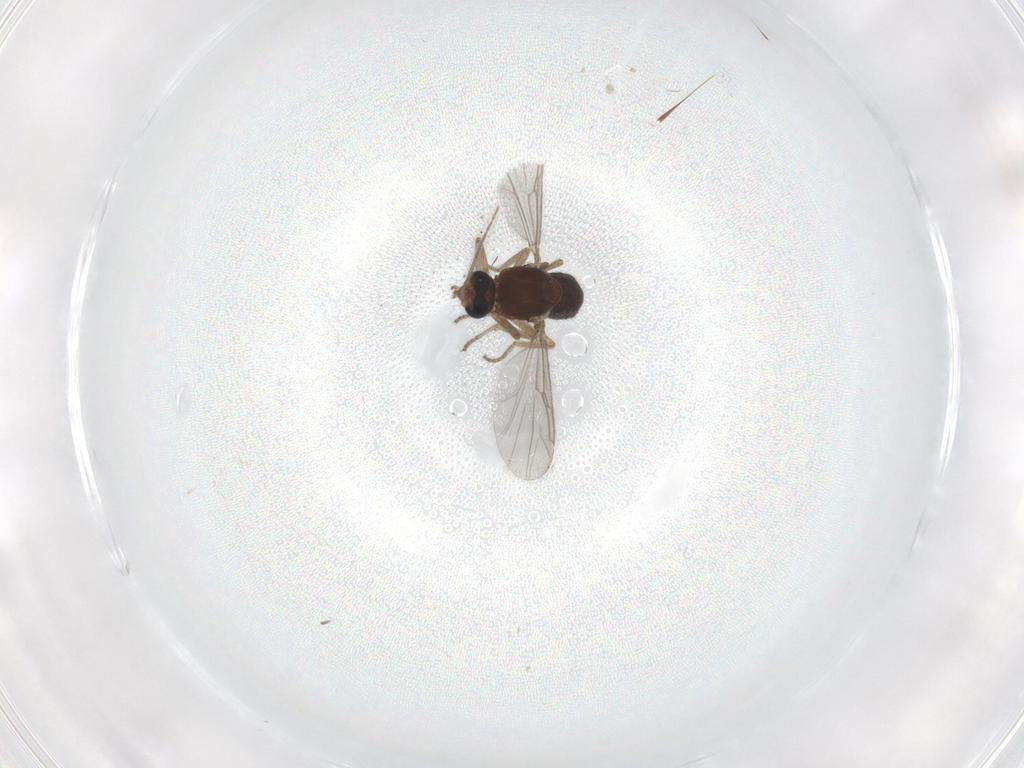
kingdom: Animalia
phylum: Arthropoda
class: Insecta
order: Diptera
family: Ceratopogonidae
